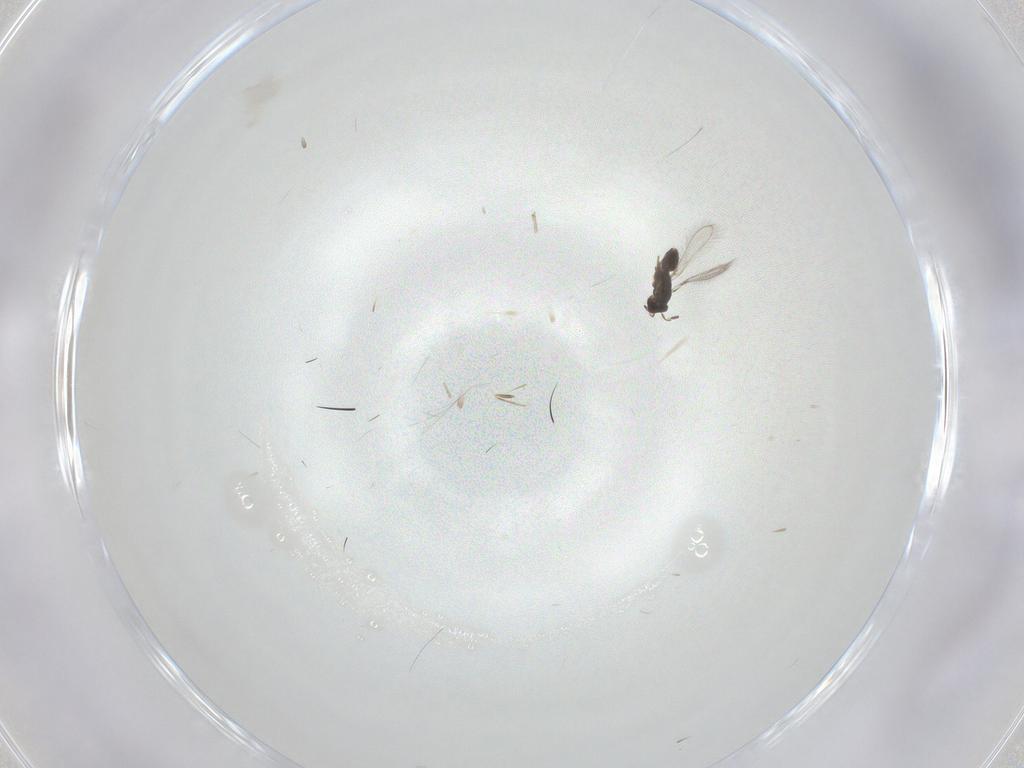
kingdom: Animalia
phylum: Arthropoda
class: Insecta
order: Hymenoptera
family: Mymaridae
